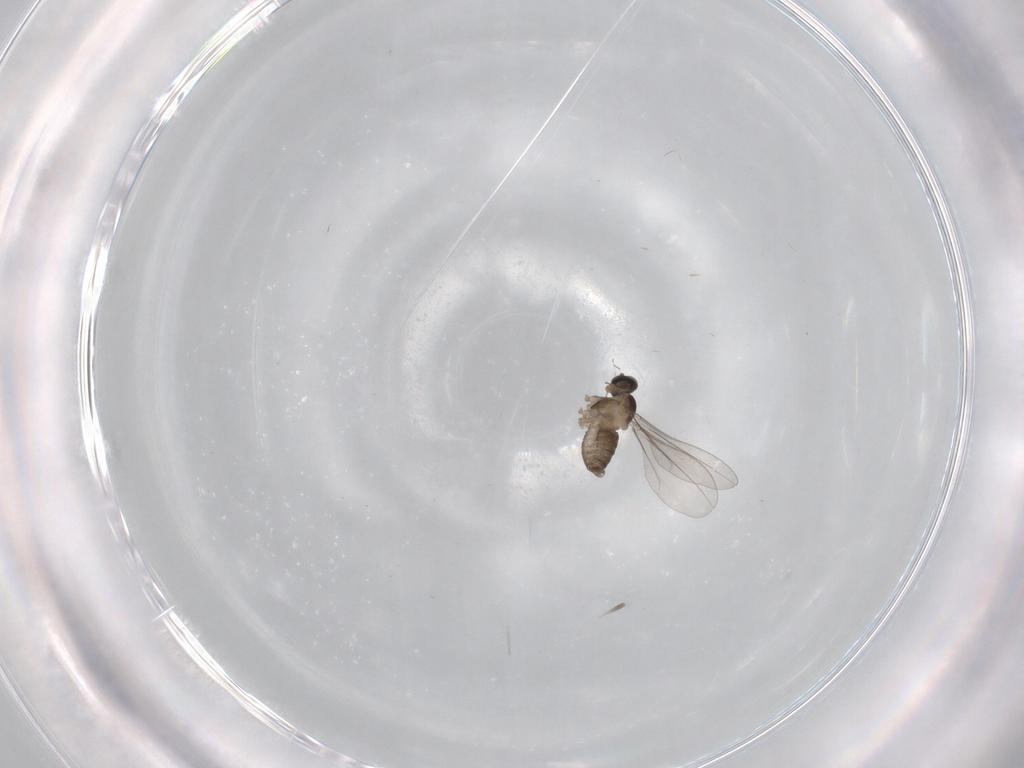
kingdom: Animalia
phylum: Arthropoda
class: Insecta
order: Diptera
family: Cecidomyiidae
